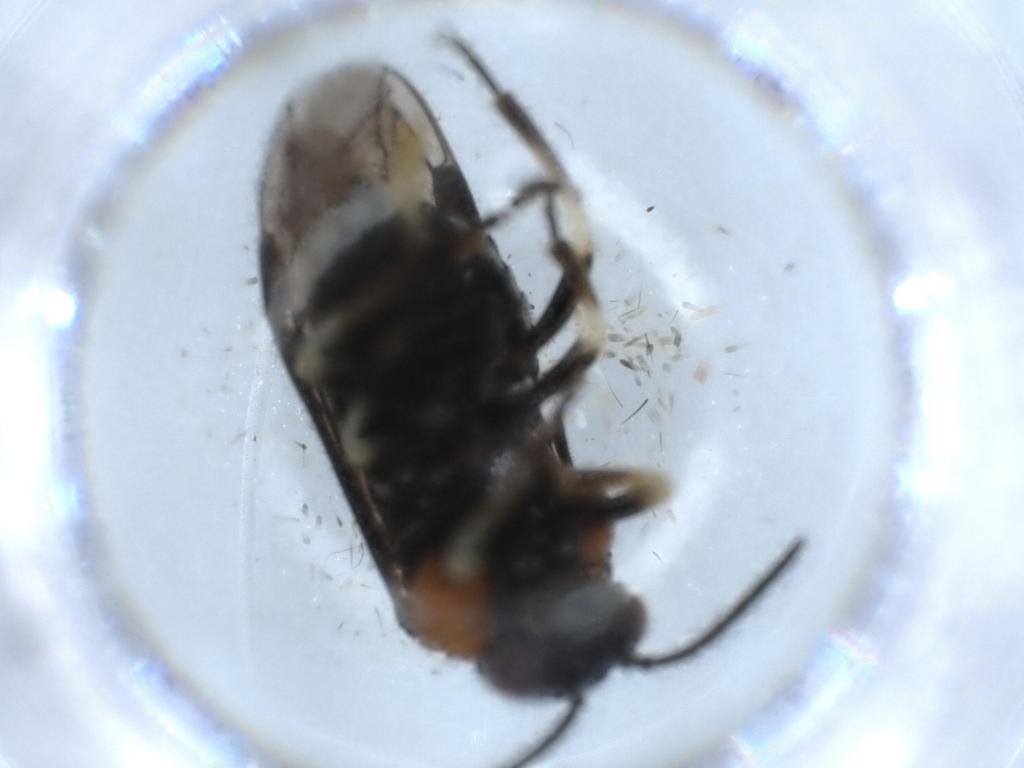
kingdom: Animalia
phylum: Arthropoda
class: Insecta
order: Hymenoptera
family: Tenthredinidae
